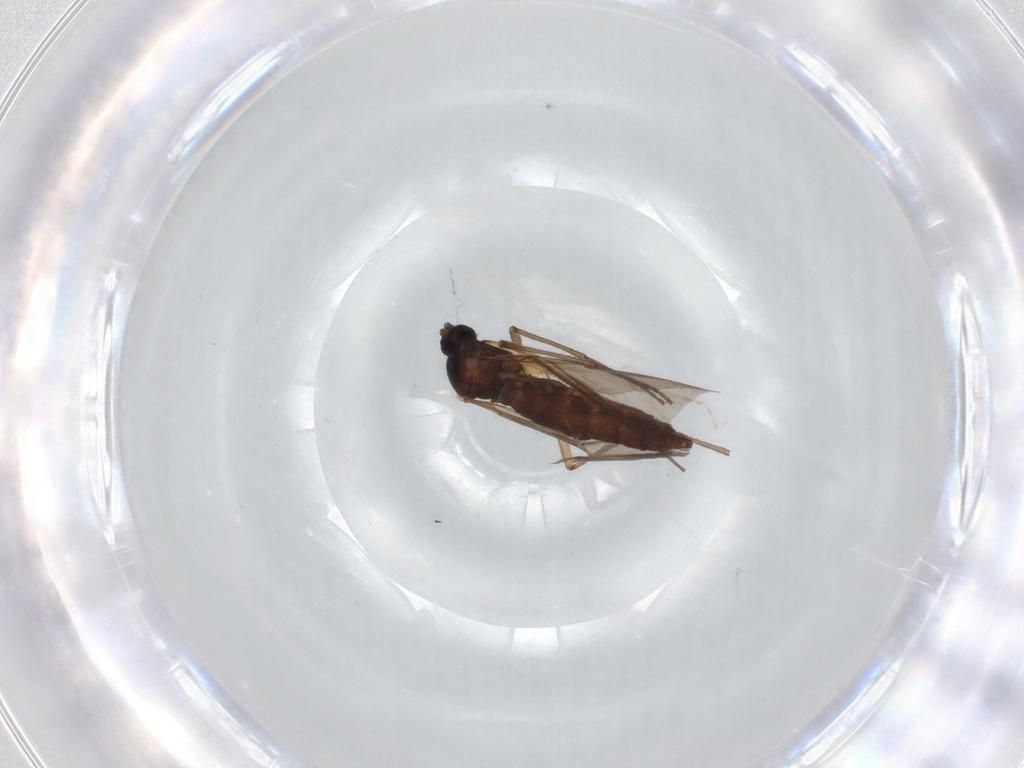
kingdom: Animalia
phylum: Arthropoda
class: Insecta
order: Diptera
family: Sciaridae
